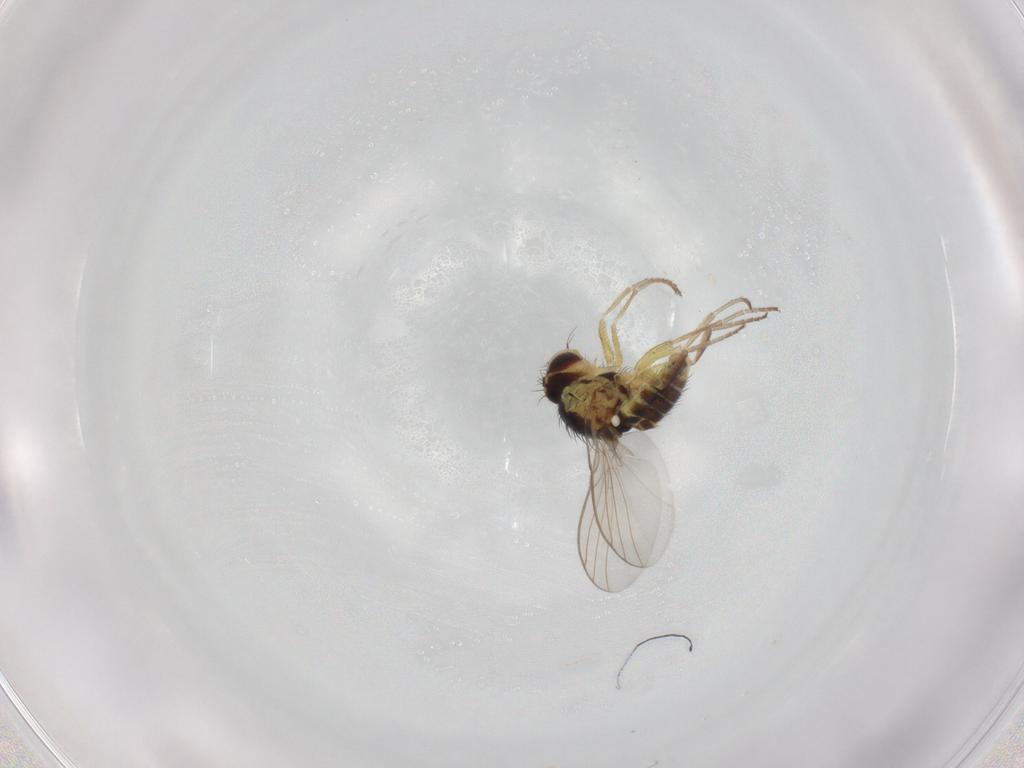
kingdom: Animalia
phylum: Arthropoda
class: Insecta
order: Diptera
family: Agromyzidae
